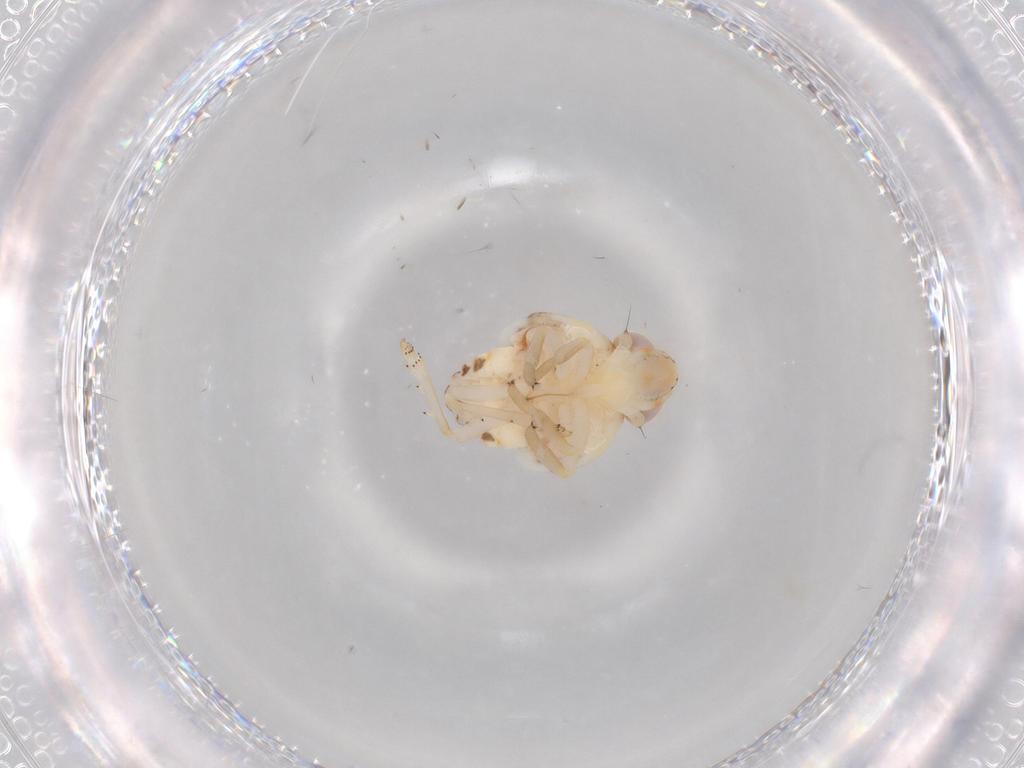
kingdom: Animalia
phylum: Arthropoda
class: Insecta
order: Hemiptera
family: Nogodinidae
